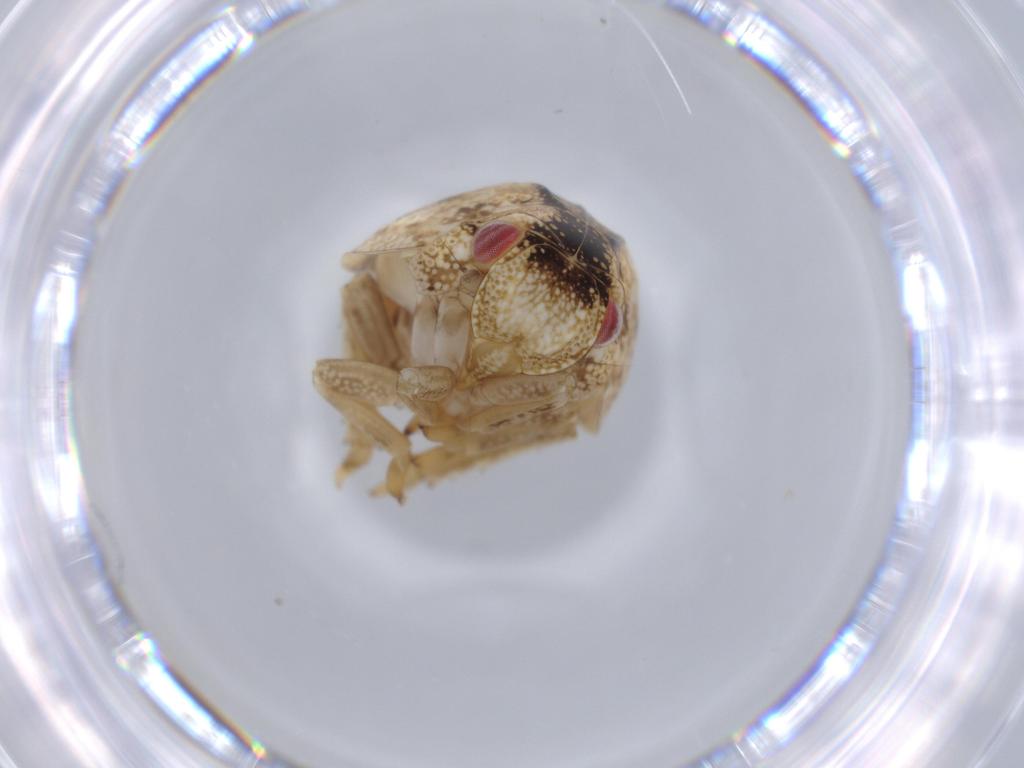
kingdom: Animalia
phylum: Arthropoda
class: Insecta
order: Hemiptera
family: Acanaloniidae
